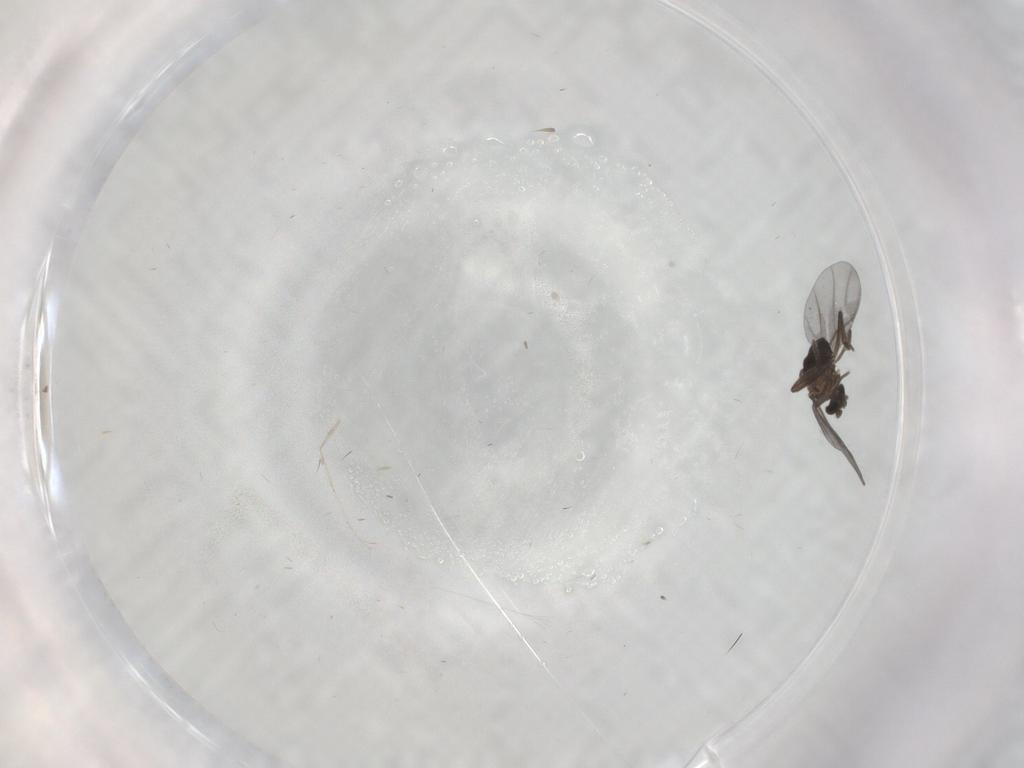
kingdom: Animalia
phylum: Arthropoda
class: Insecta
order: Diptera
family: Cecidomyiidae
